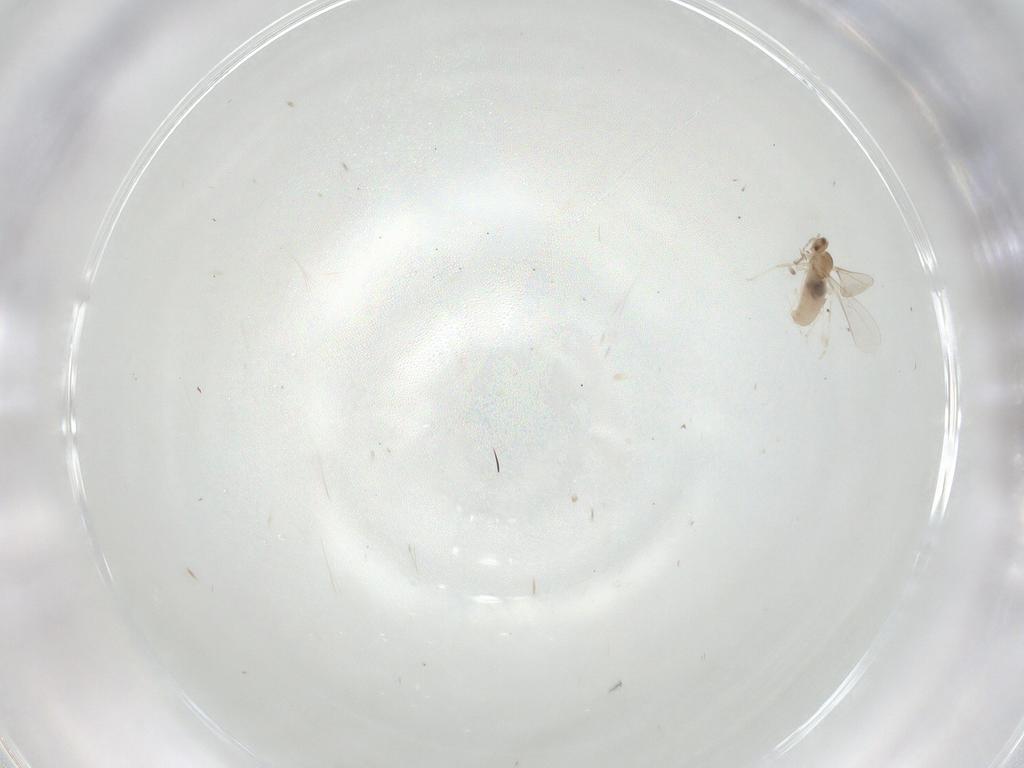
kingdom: Animalia
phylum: Arthropoda
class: Insecta
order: Diptera
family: Cecidomyiidae
